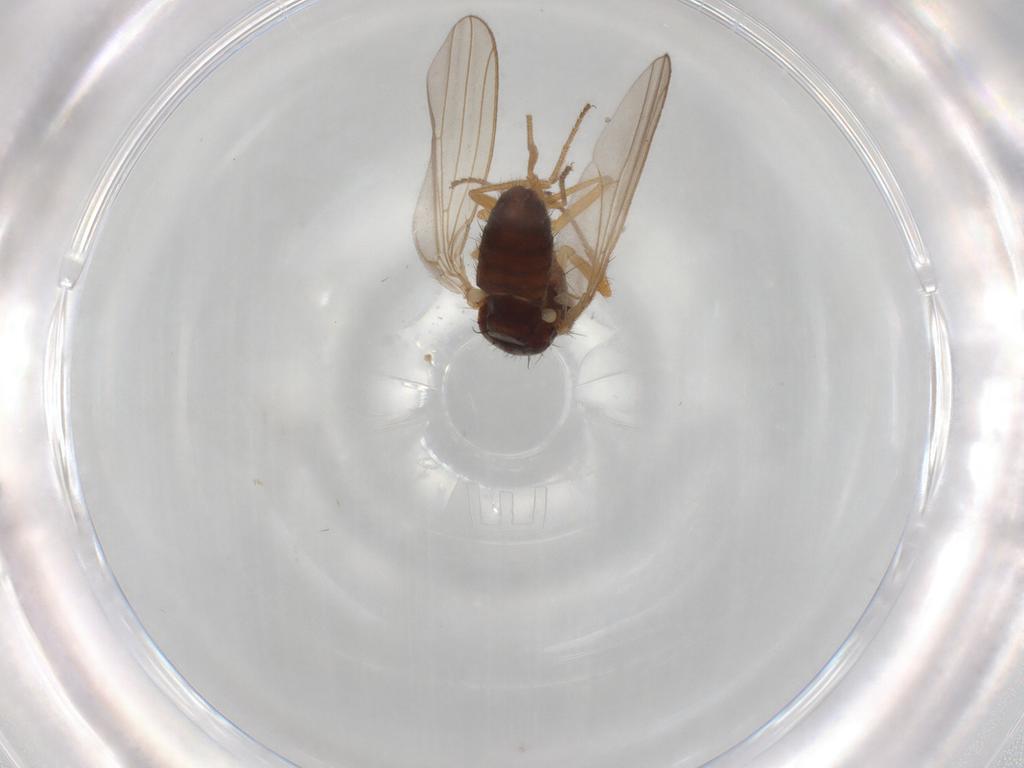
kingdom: Animalia
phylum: Arthropoda
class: Insecta
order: Diptera
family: Drosophilidae
